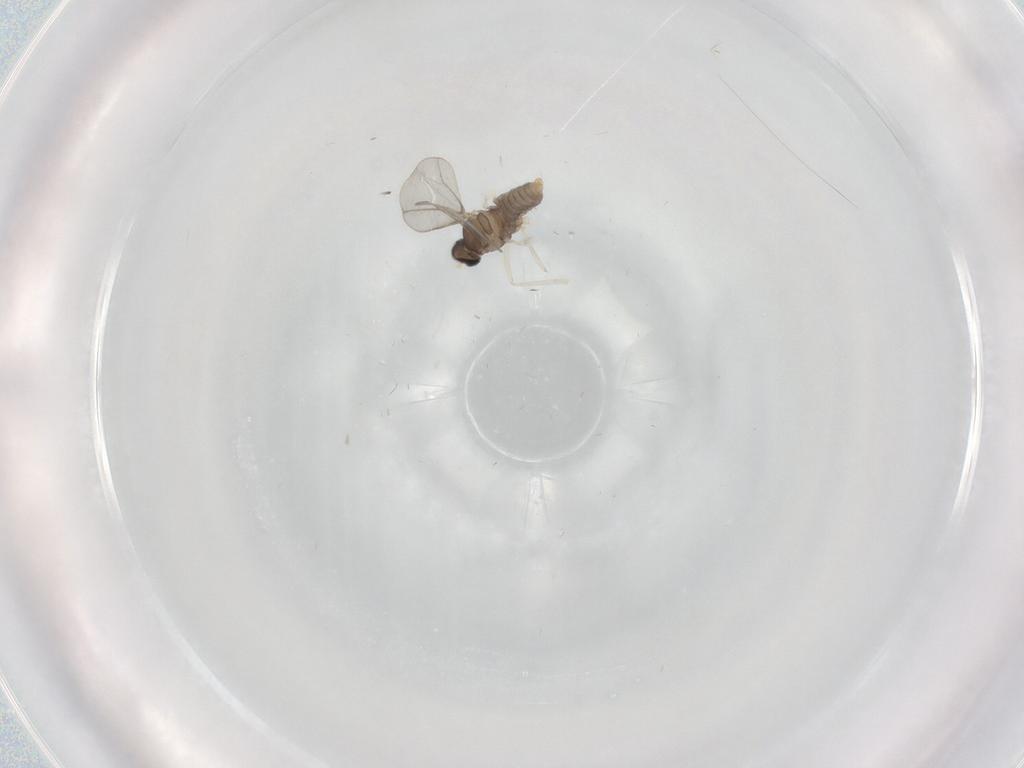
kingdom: Animalia
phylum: Arthropoda
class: Insecta
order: Diptera
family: Cecidomyiidae
